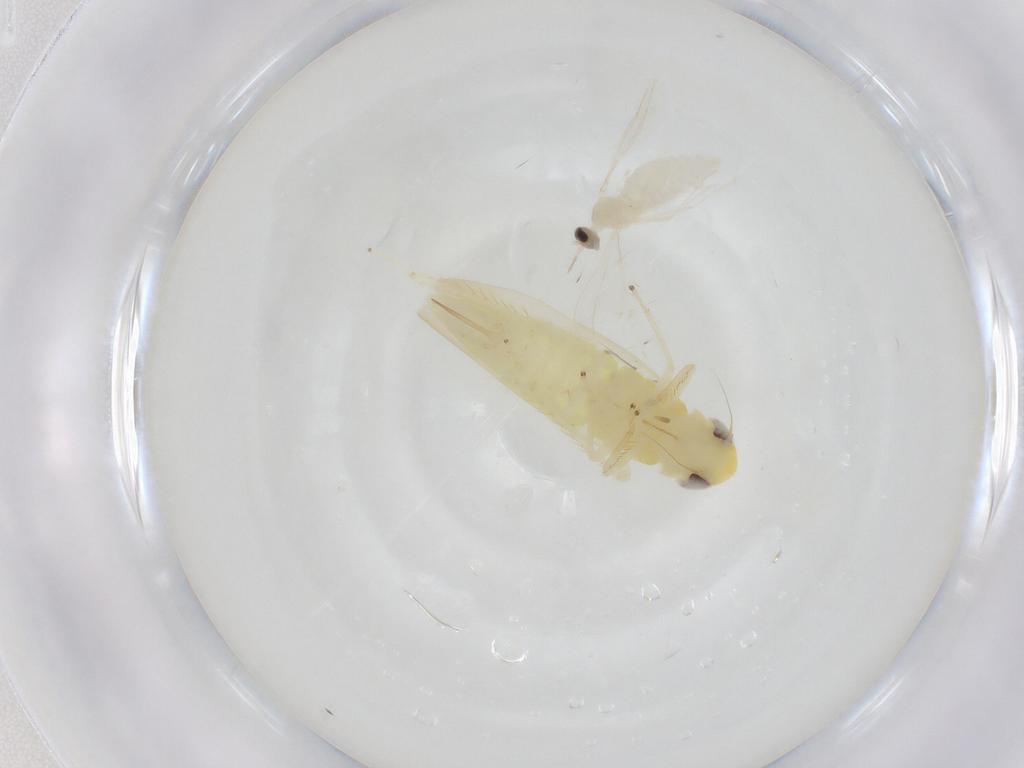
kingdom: Animalia
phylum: Arthropoda
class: Insecta
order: Hemiptera
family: Cicadellidae
